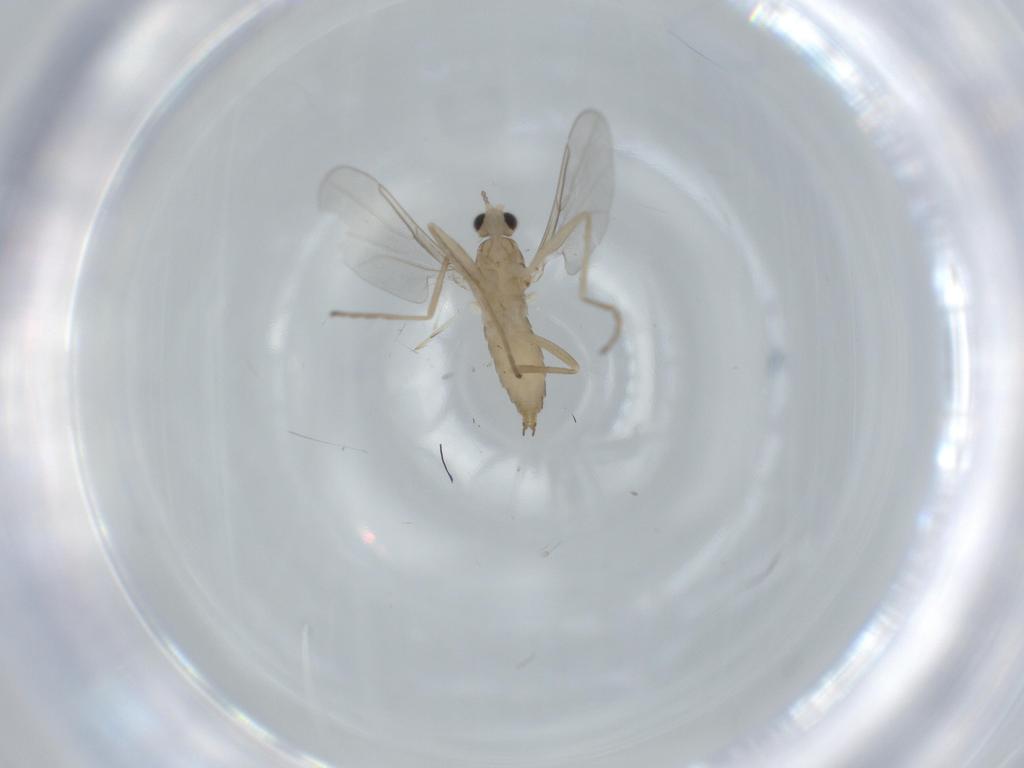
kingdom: Animalia
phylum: Arthropoda
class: Insecta
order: Diptera
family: Cecidomyiidae
